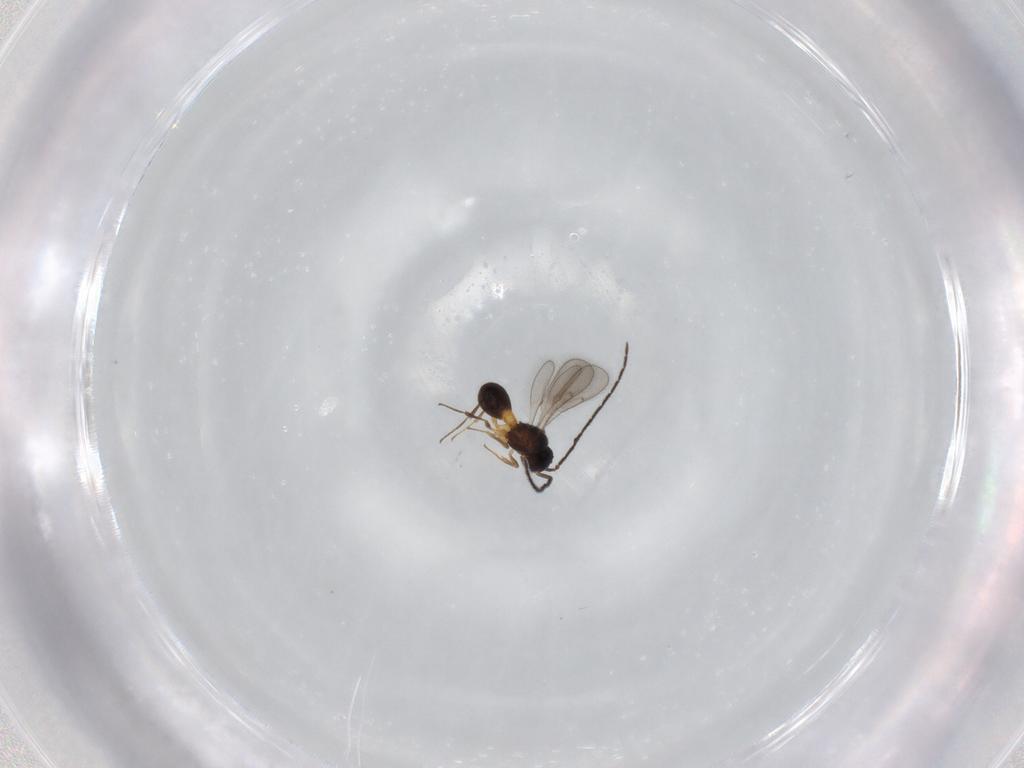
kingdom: Animalia
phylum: Arthropoda
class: Insecta
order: Hymenoptera
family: Scelionidae
